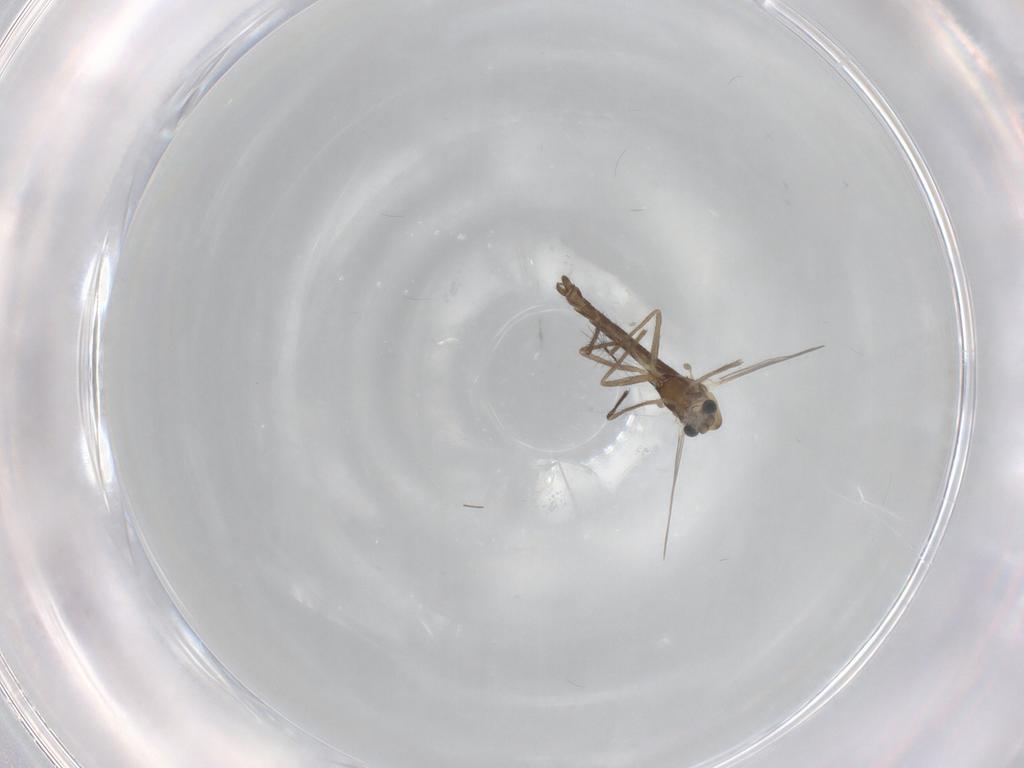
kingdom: Animalia
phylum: Arthropoda
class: Insecta
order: Diptera
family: Chironomidae
